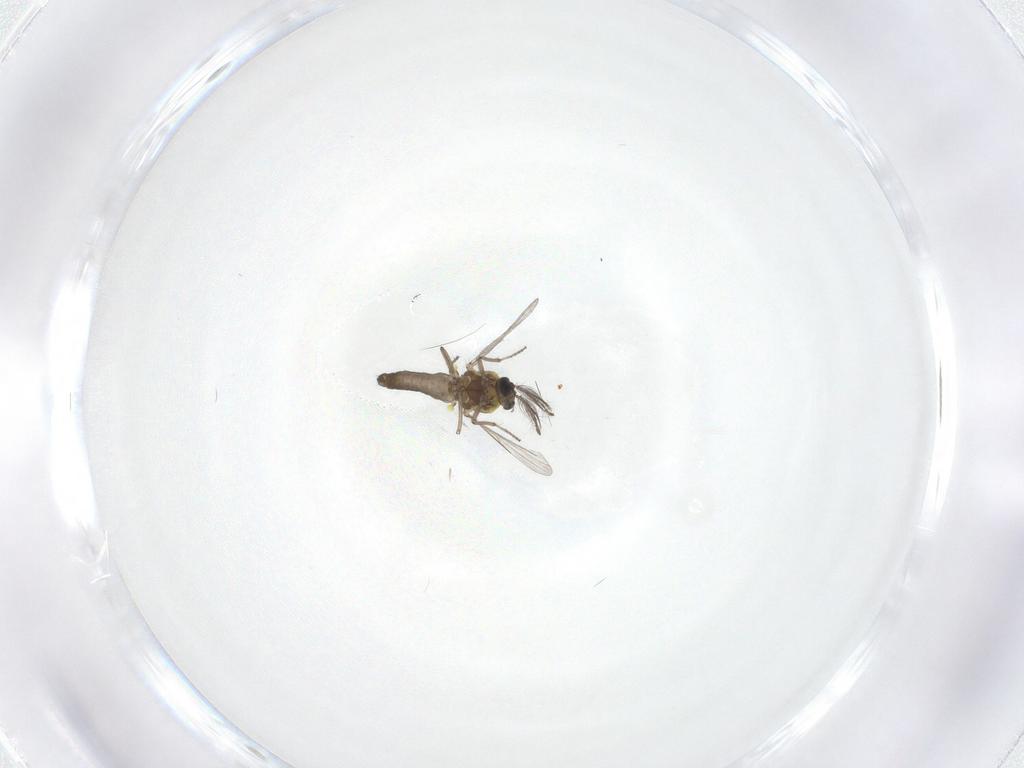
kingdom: Animalia
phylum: Arthropoda
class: Insecta
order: Diptera
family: Ceratopogonidae
